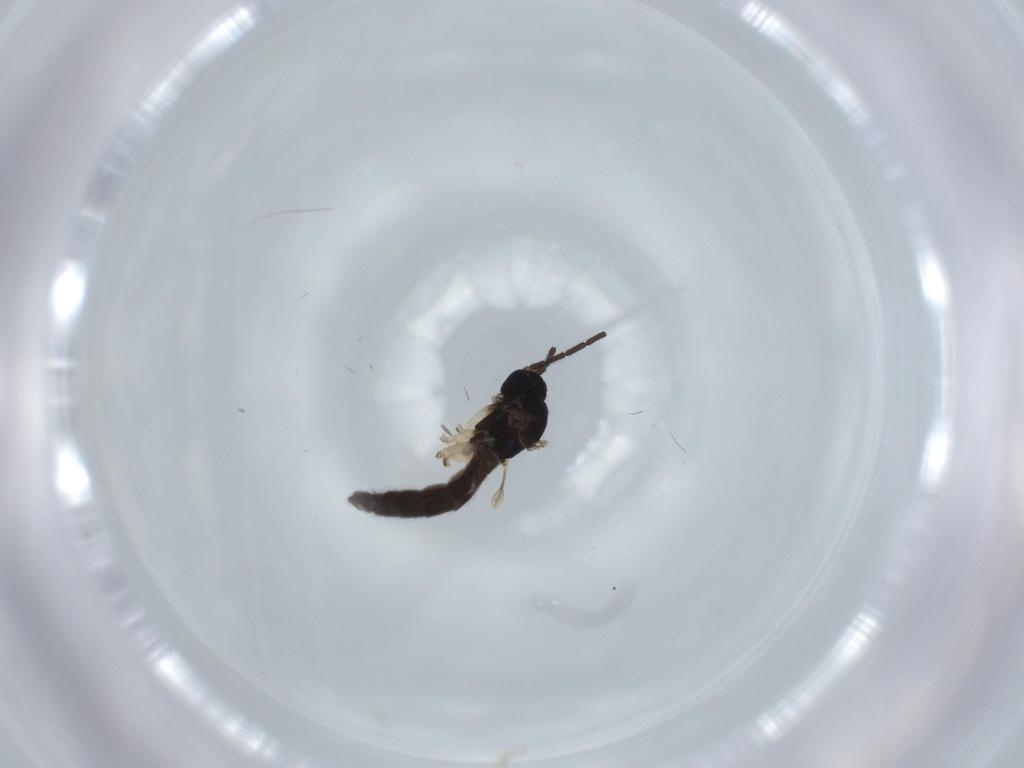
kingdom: Animalia
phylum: Arthropoda
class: Insecta
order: Diptera
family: Sciaridae
